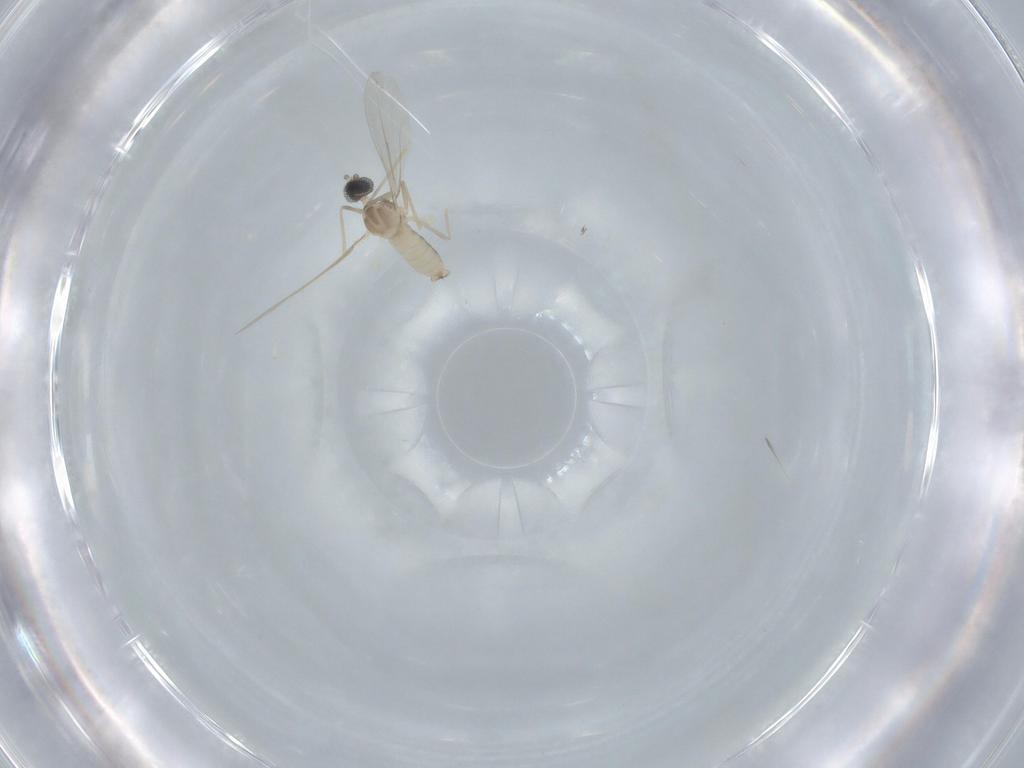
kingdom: Animalia
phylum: Arthropoda
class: Insecta
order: Diptera
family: Cecidomyiidae
